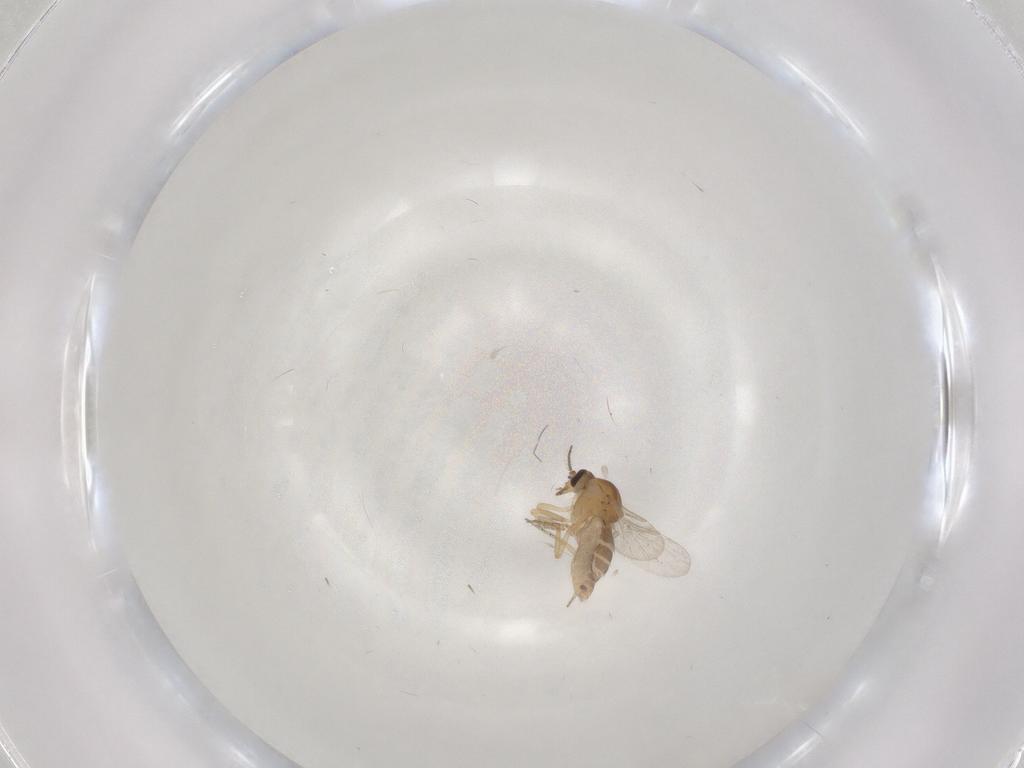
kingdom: Animalia
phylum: Arthropoda
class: Insecta
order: Diptera
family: Ceratopogonidae
